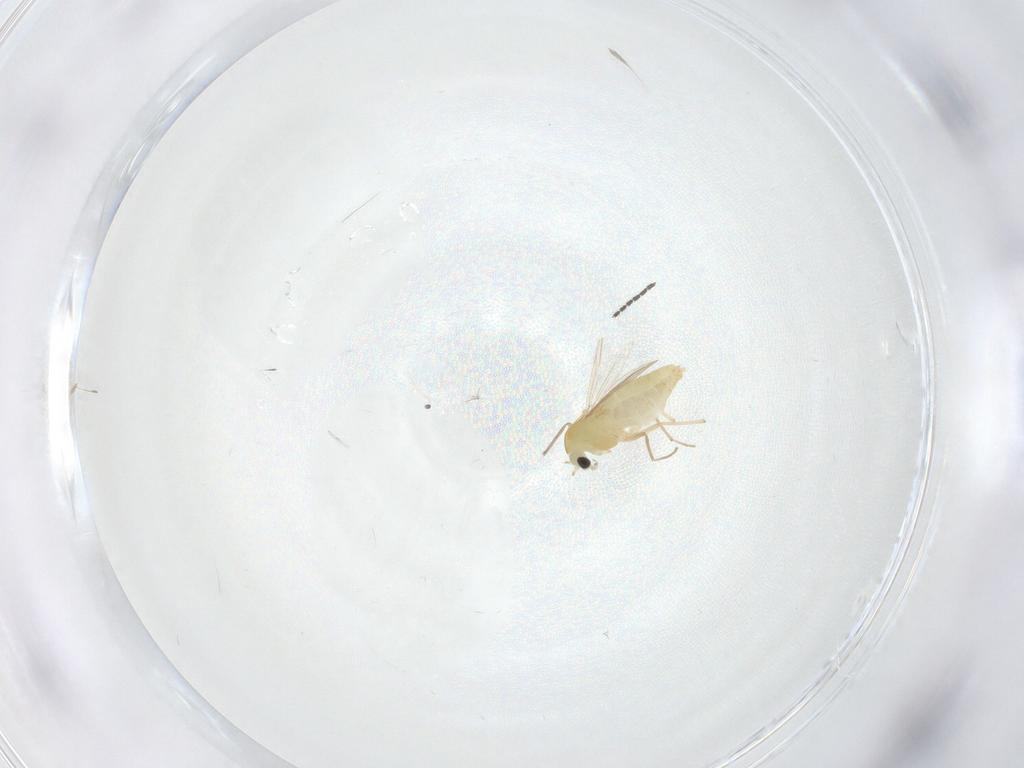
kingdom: Animalia
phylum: Arthropoda
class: Insecta
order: Diptera
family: Chironomidae
